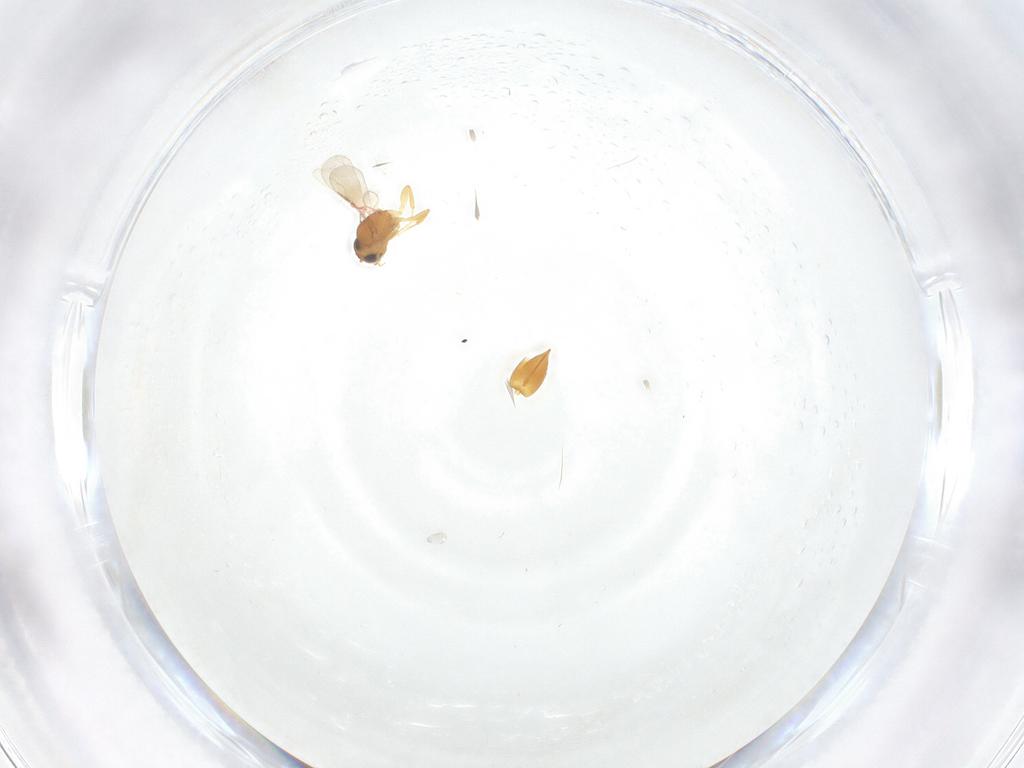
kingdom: Animalia
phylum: Arthropoda
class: Insecta
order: Hymenoptera
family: Ceraphronidae
